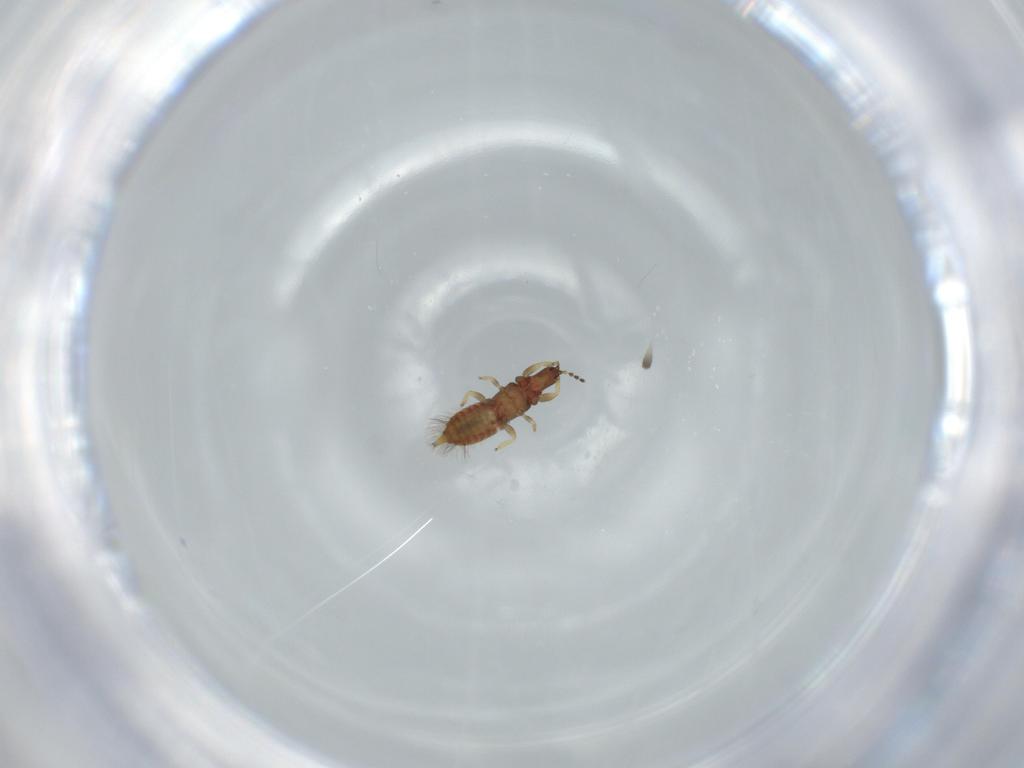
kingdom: Animalia
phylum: Arthropoda
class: Insecta
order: Thysanoptera
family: Phlaeothripidae
